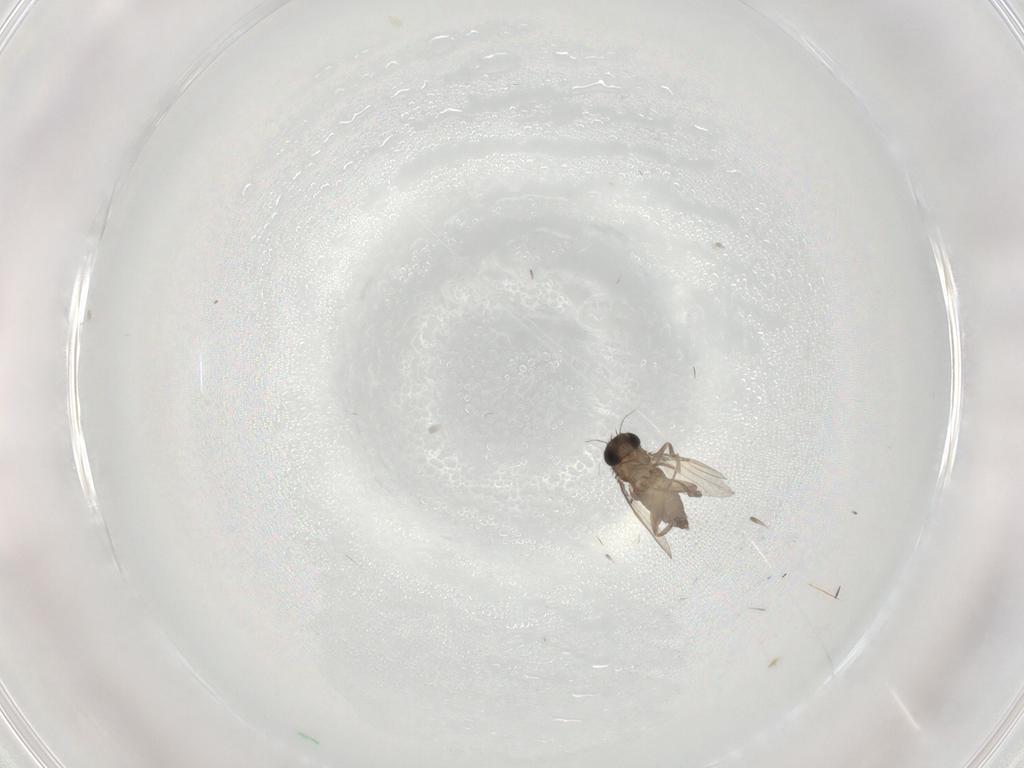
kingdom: Animalia
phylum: Arthropoda
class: Insecta
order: Diptera
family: Phoridae
